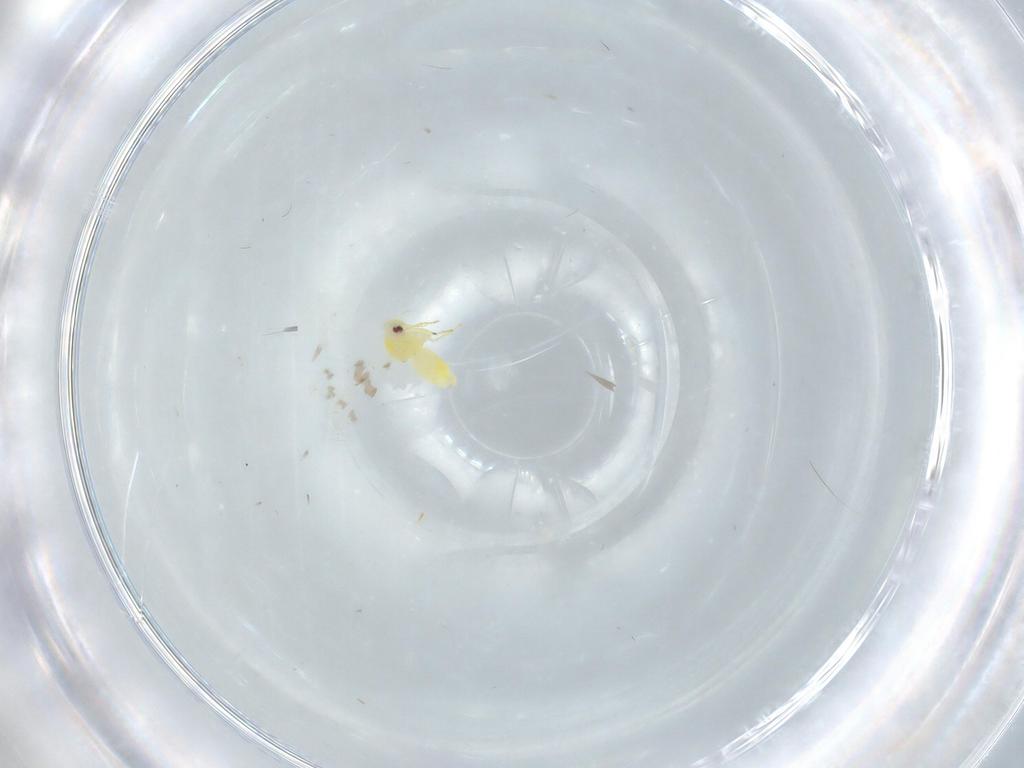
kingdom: Animalia
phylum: Arthropoda
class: Insecta
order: Hemiptera
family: Aleyrodidae
